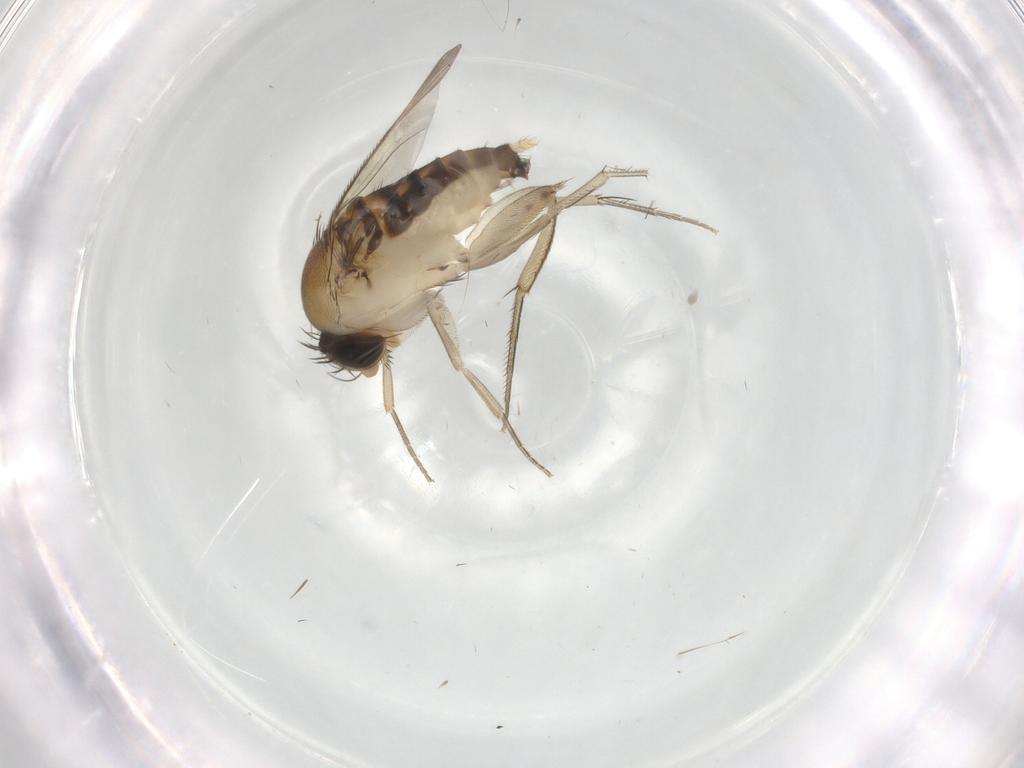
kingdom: Animalia
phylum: Arthropoda
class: Insecta
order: Diptera
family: Phoridae
